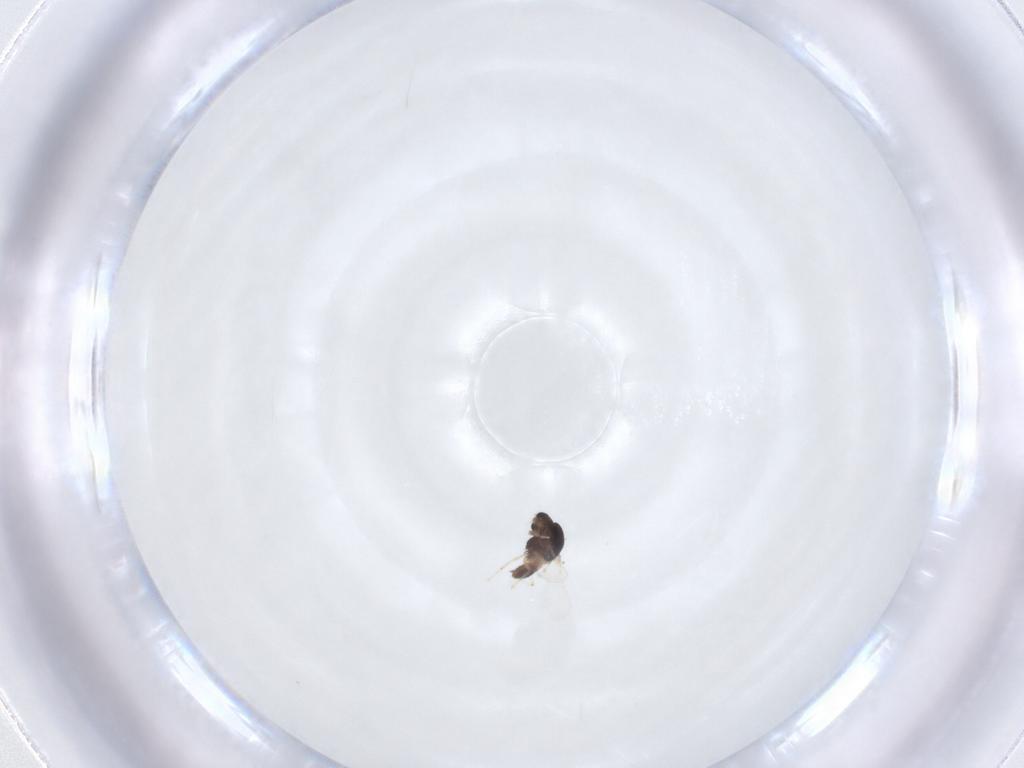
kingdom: Animalia
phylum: Arthropoda
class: Insecta
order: Diptera
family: Chironomidae
